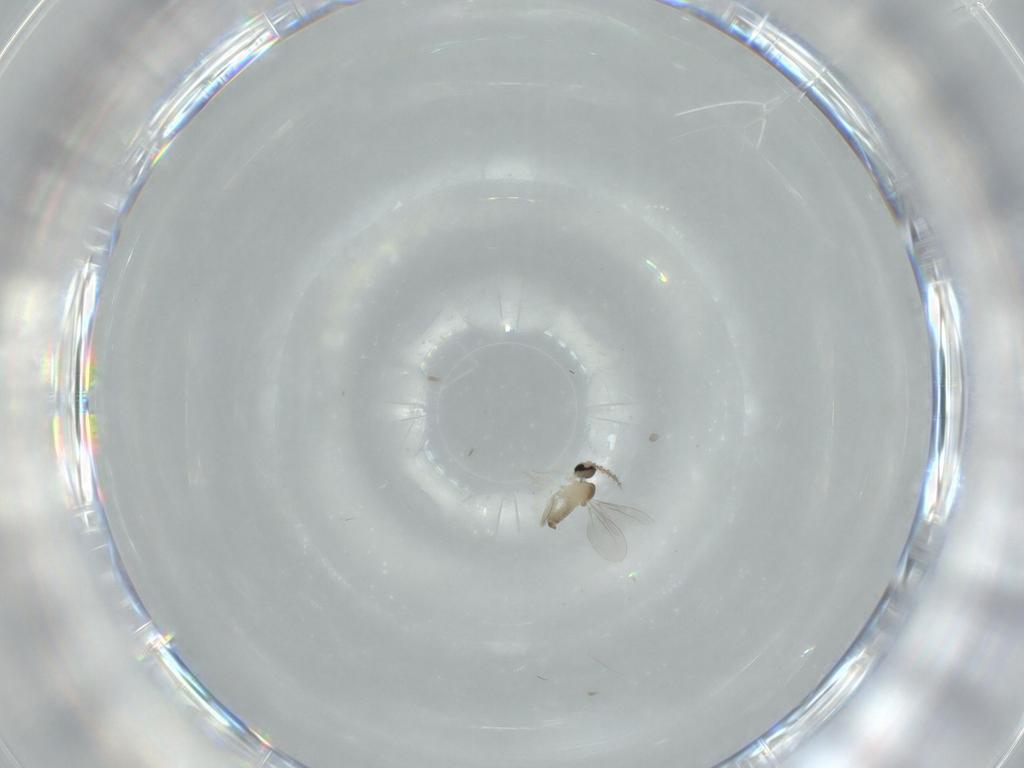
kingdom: Animalia
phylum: Arthropoda
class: Insecta
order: Diptera
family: Cecidomyiidae
